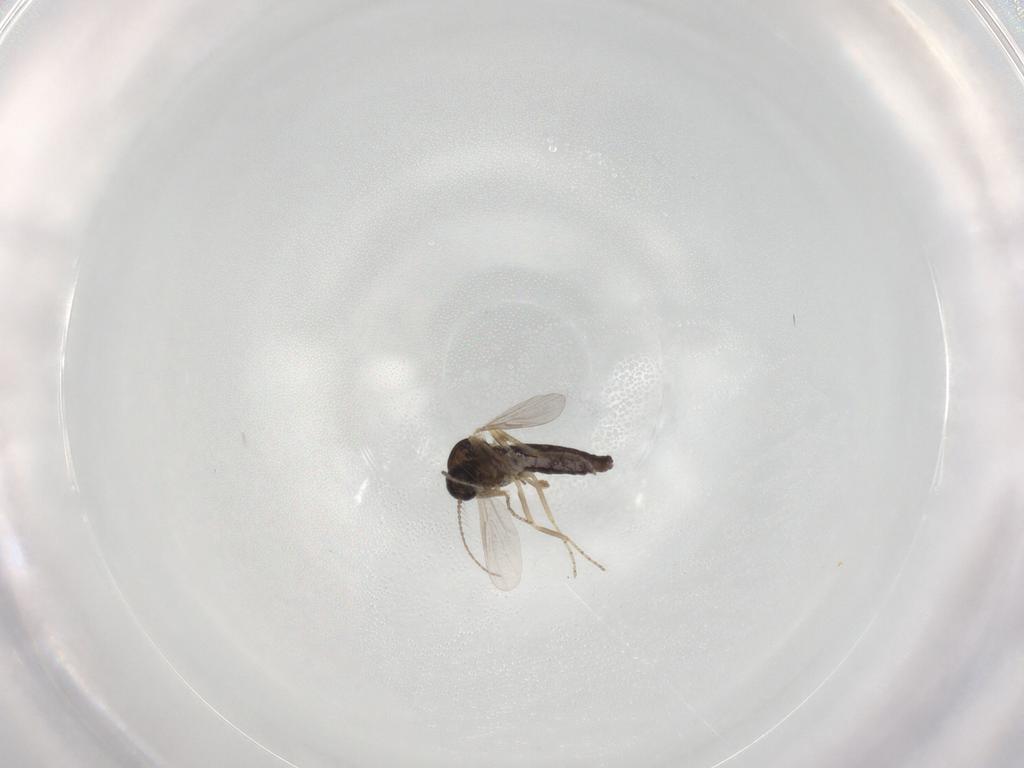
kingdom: Animalia
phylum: Arthropoda
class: Insecta
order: Diptera
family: Ceratopogonidae
